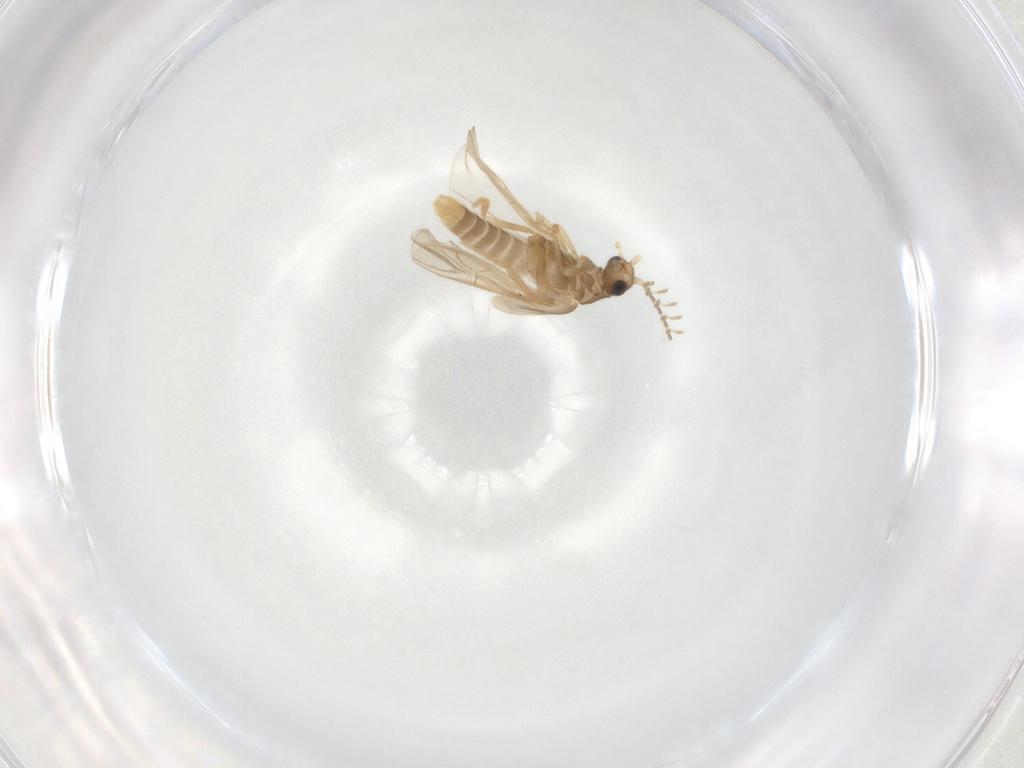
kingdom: Animalia
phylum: Arthropoda
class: Insecta
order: Coleoptera
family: Phengodidae
